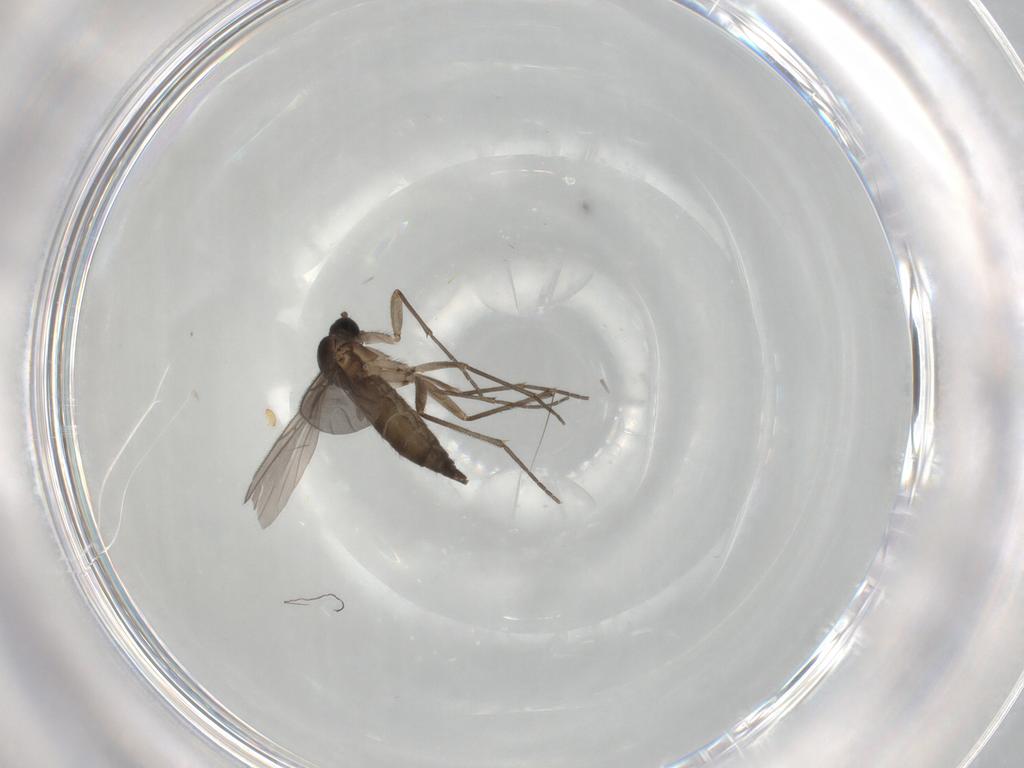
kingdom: Animalia
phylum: Arthropoda
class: Insecta
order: Diptera
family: Sciaridae
